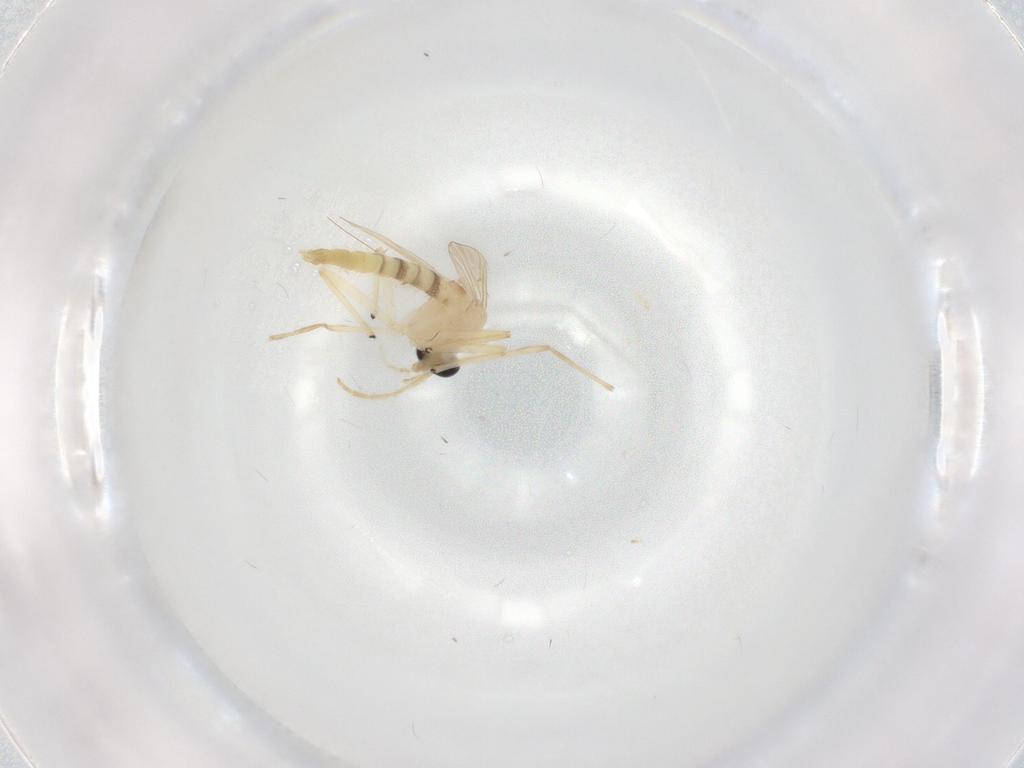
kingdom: Animalia
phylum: Arthropoda
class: Insecta
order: Diptera
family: Chironomidae
